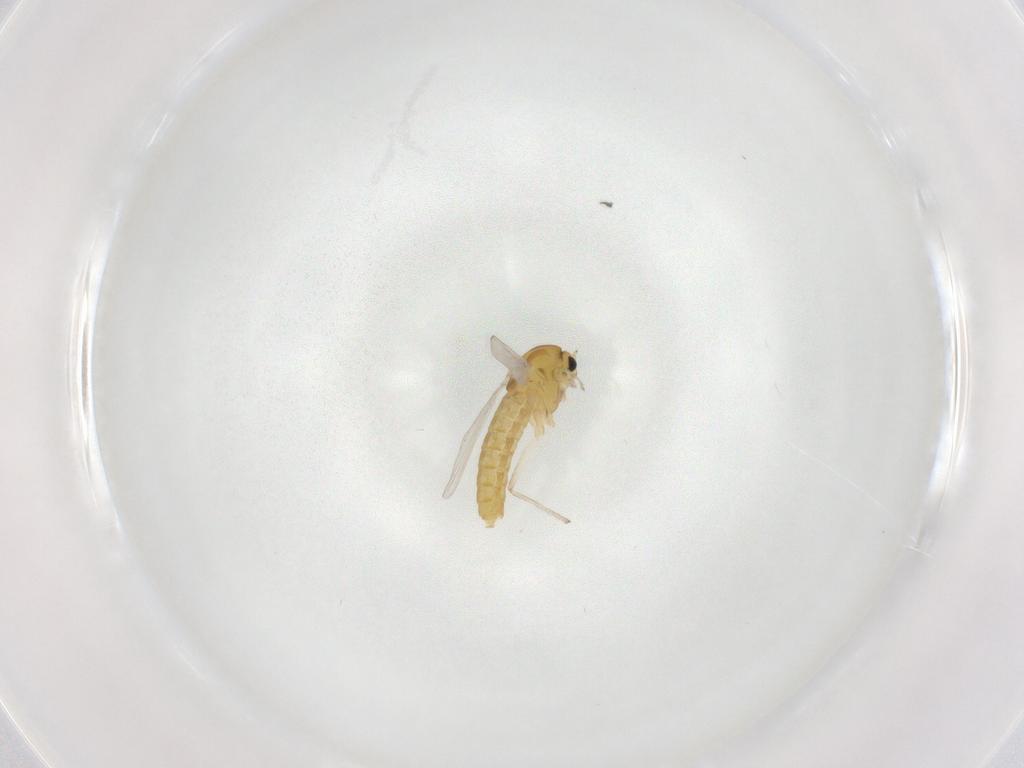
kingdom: Animalia
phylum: Arthropoda
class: Insecta
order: Diptera
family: Chironomidae
